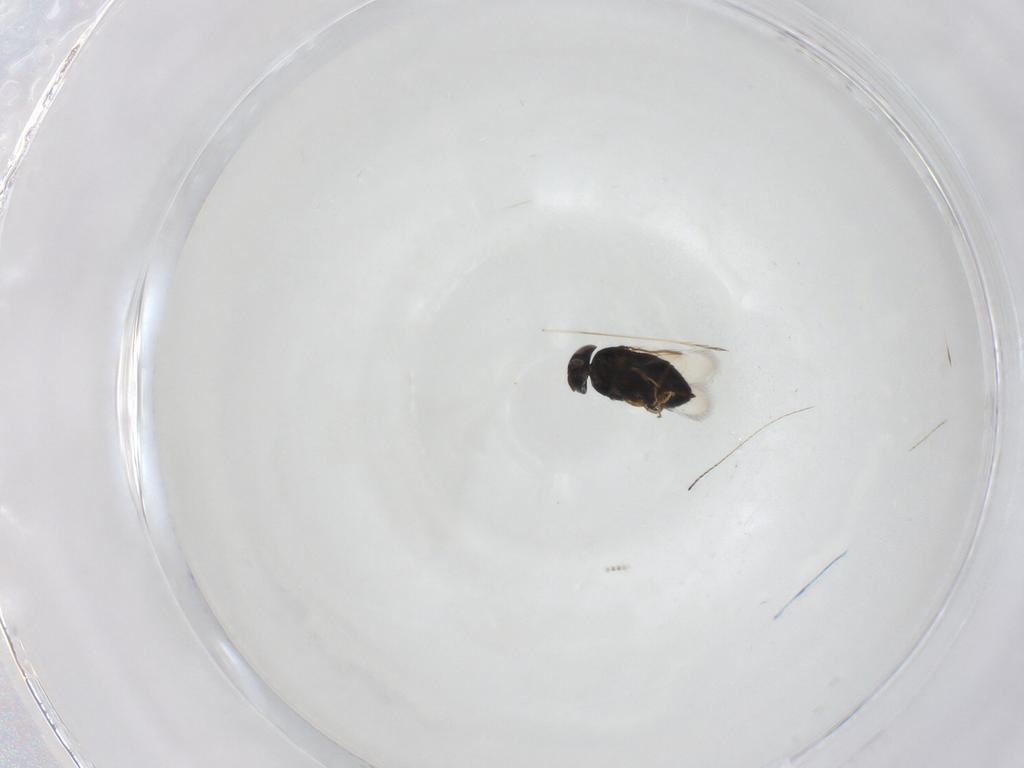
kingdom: Animalia
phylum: Arthropoda
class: Insecta
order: Hymenoptera
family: Signiphoridae
